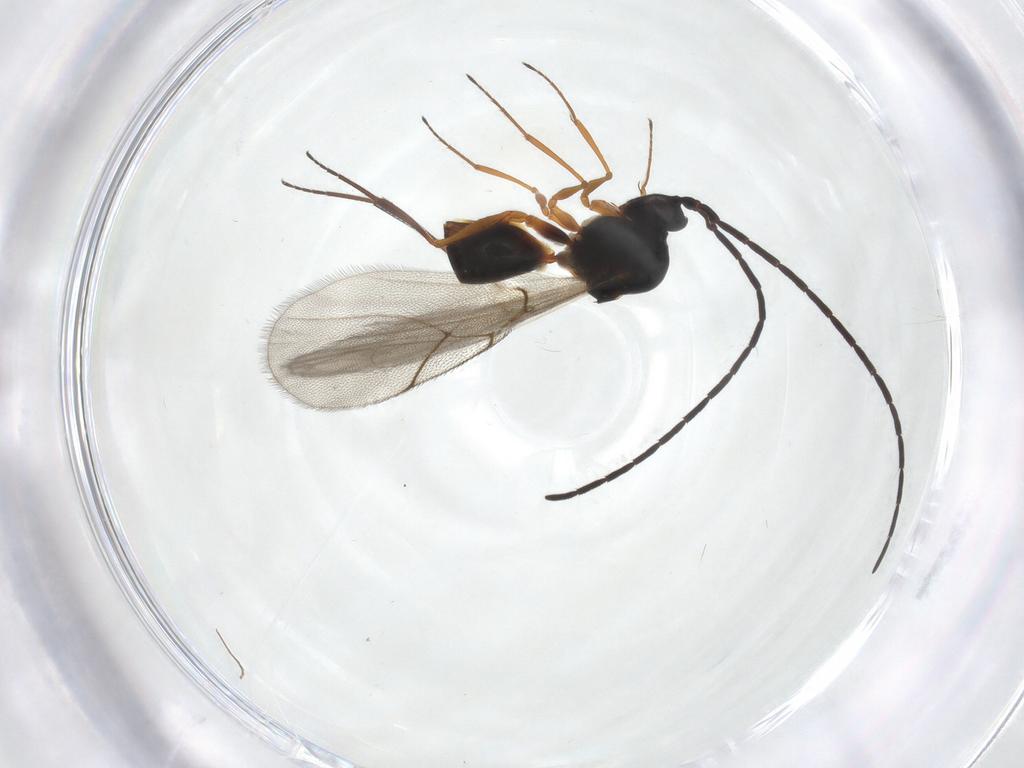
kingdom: Animalia
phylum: Arthropoda
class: Insecta
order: Hymenoptera
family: Figitidae
